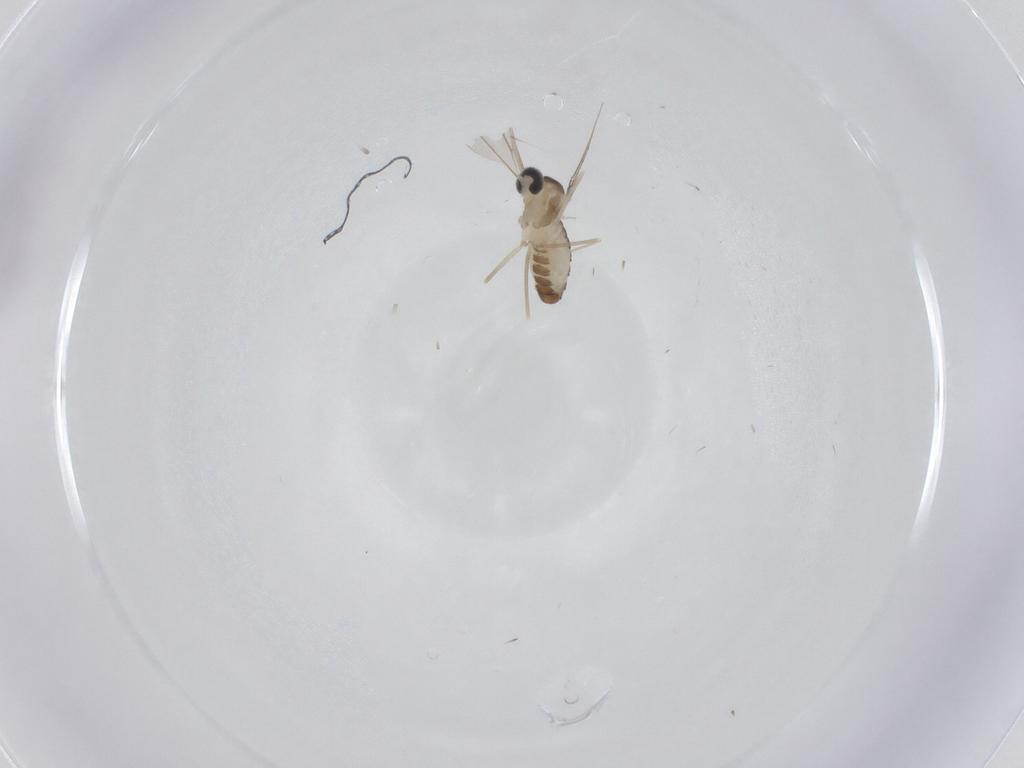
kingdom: Animalia
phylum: Arthropoda
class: Insecta
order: Diptera
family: Cecidomyiidae
